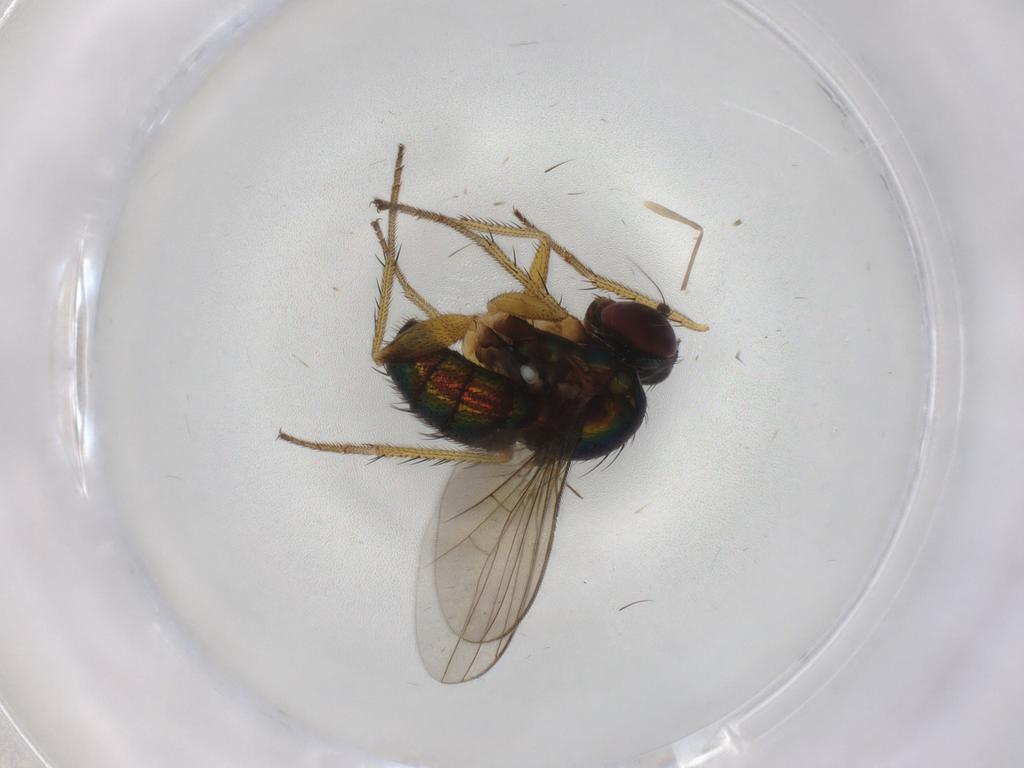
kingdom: Animalia
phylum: Arthropoda
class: Insecta
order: Diptera
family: Dolichopodidae
